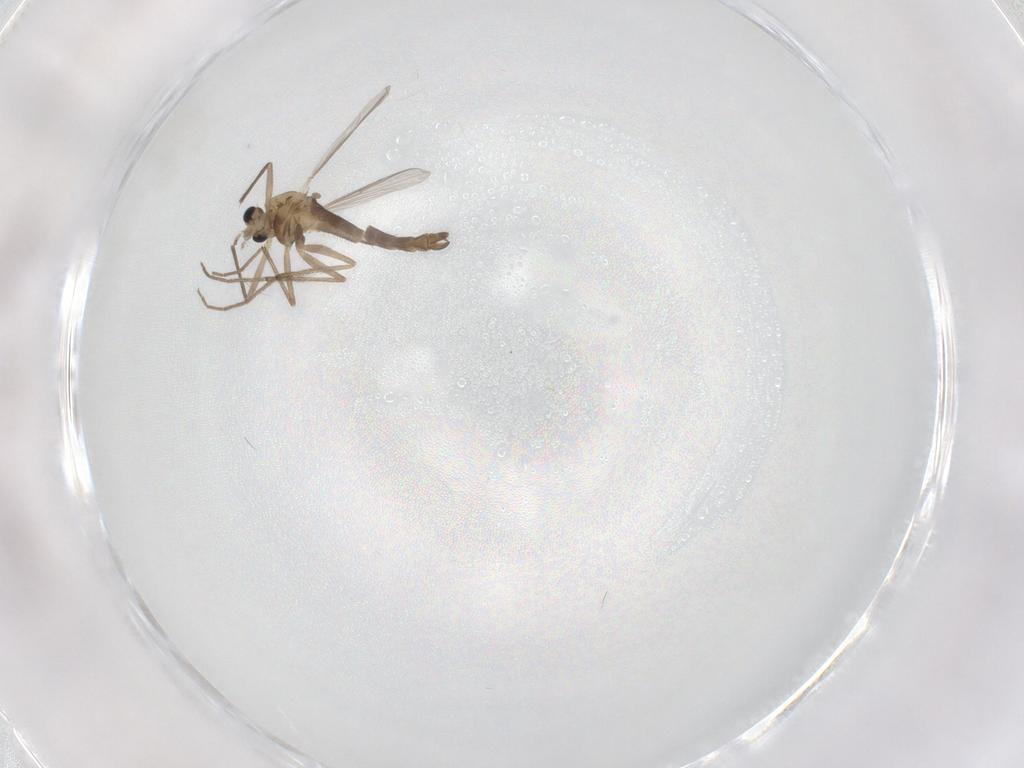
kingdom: Animalia
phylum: Arthropoda
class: Insecta
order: Diptera
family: Chironomidae
